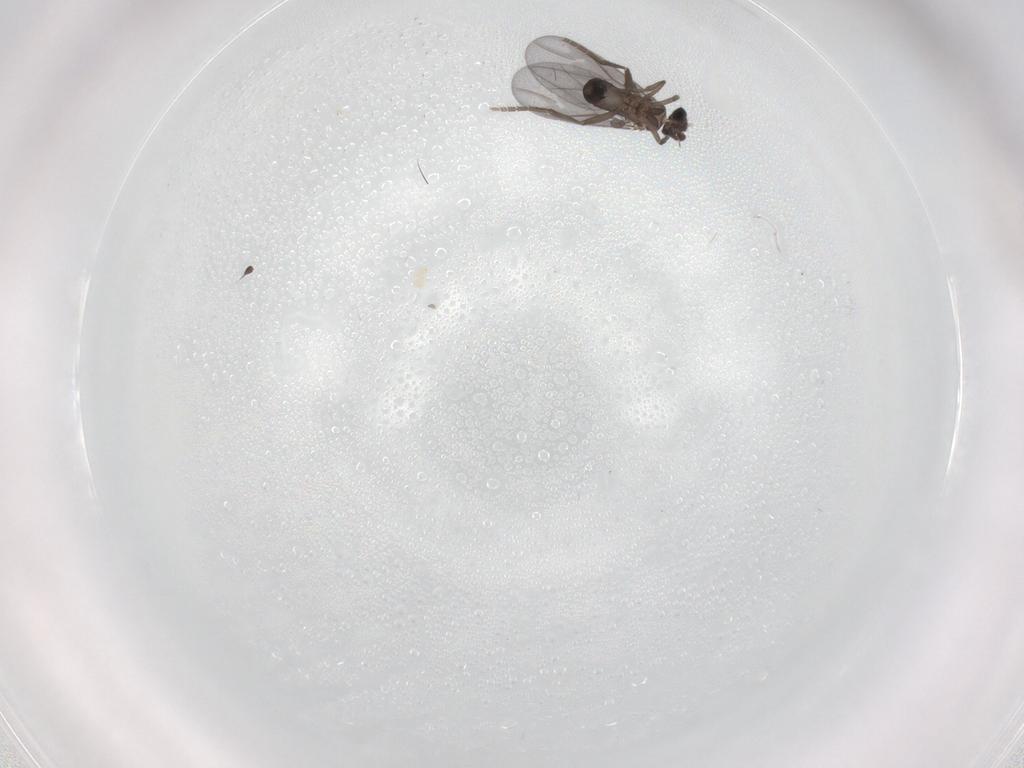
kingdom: Animalia
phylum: Arthropoda
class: Insecta
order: Diptera
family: Phoridae
